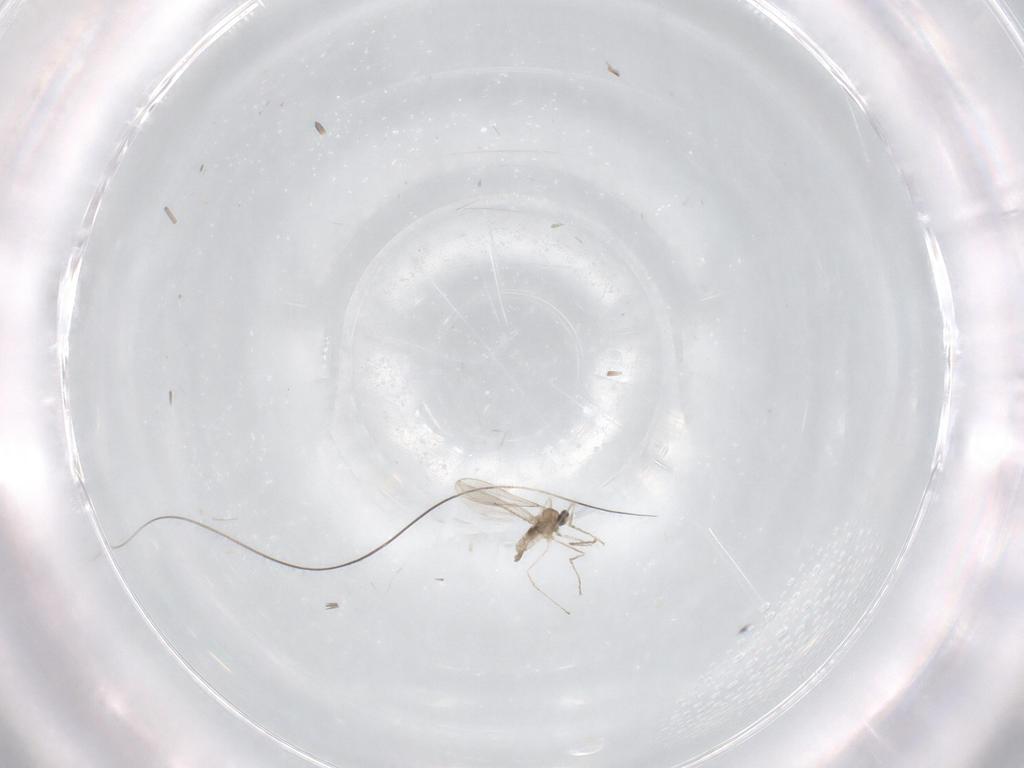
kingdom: Animalia
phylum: Arthropoda
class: Insecta
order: Diptera
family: Cecidomyiidae
